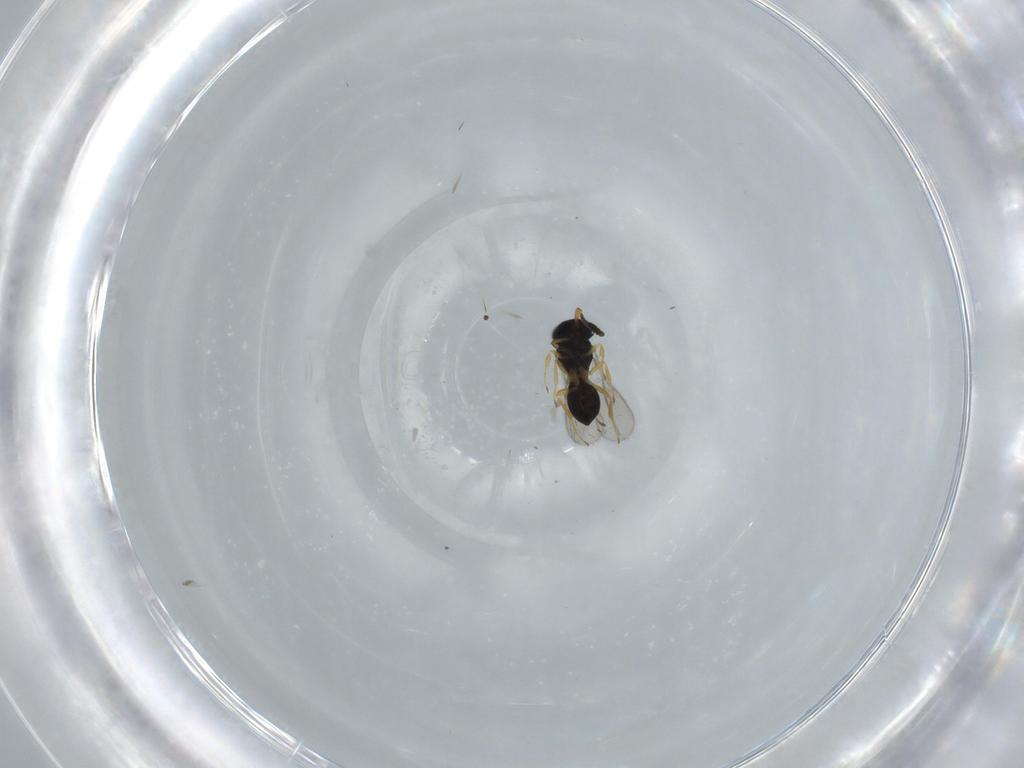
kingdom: Animalia
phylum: Arthropoda
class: Insecta
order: Hymenoptera
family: Scelionidae
